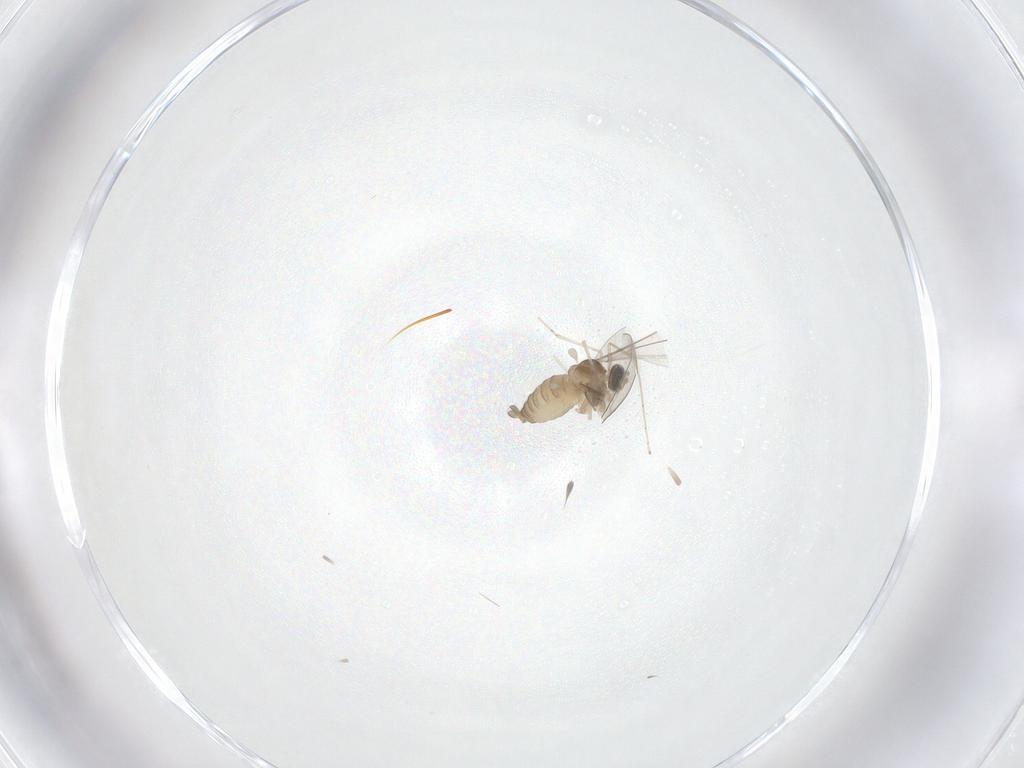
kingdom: Animalia
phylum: Arthropoda
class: Insecta
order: Diptera
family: Cecidomyiidae
